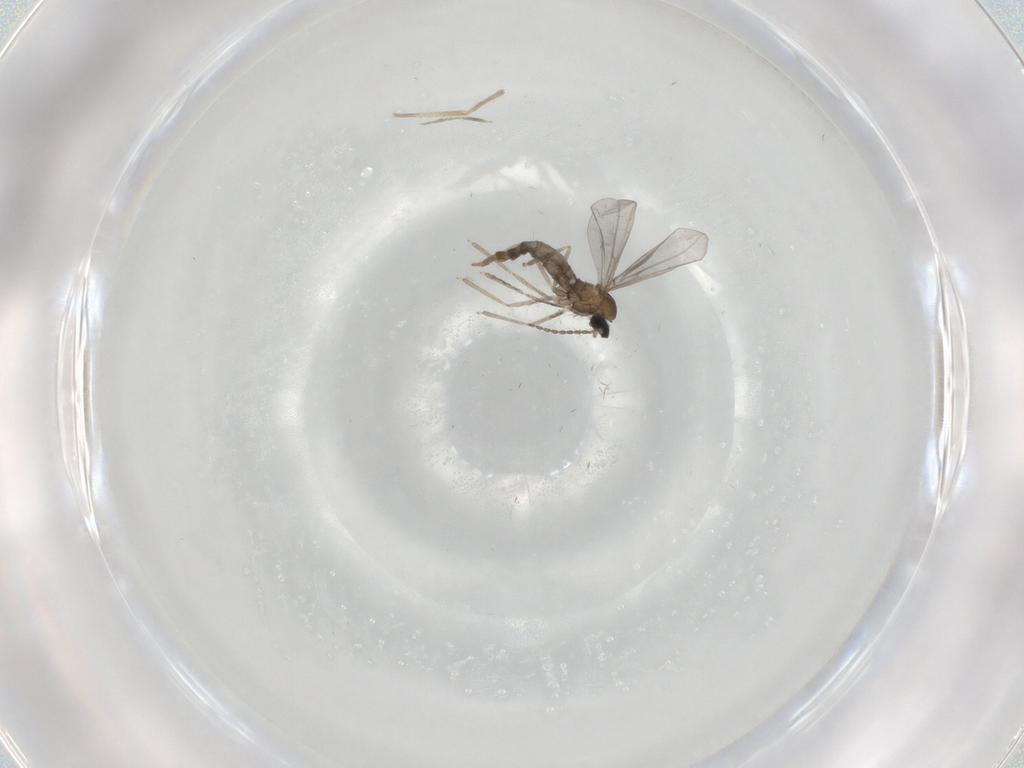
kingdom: Animalia
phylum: Arthropoda
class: Insecta
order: Diptera
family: Cecidomyiidae
